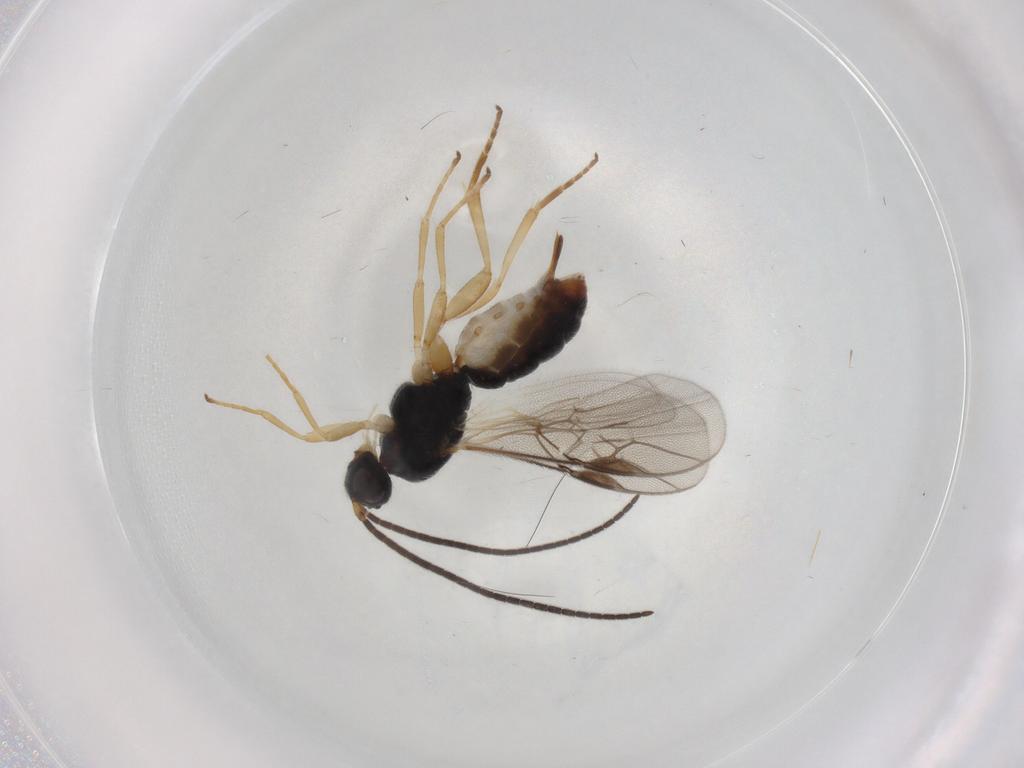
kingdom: Animalia
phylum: Arthropoda
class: Insecta
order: Hymenoptera
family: Braconidae
